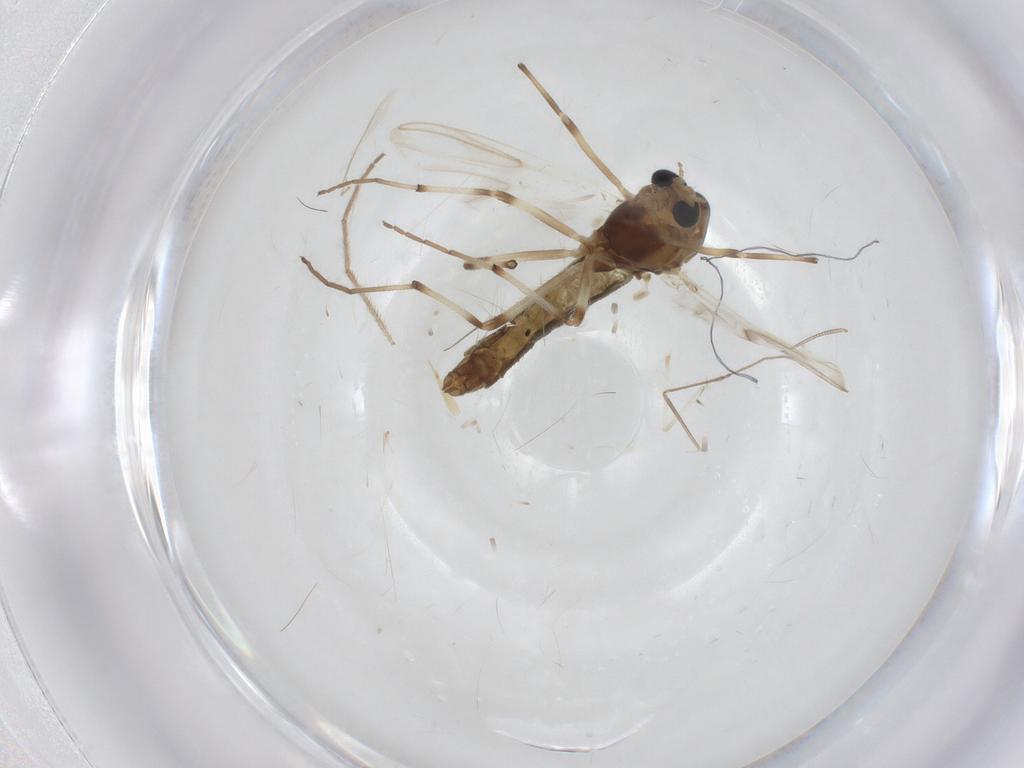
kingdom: Animalia
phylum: Arthropoda
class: Insecta
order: Diptera
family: Chironomidae
